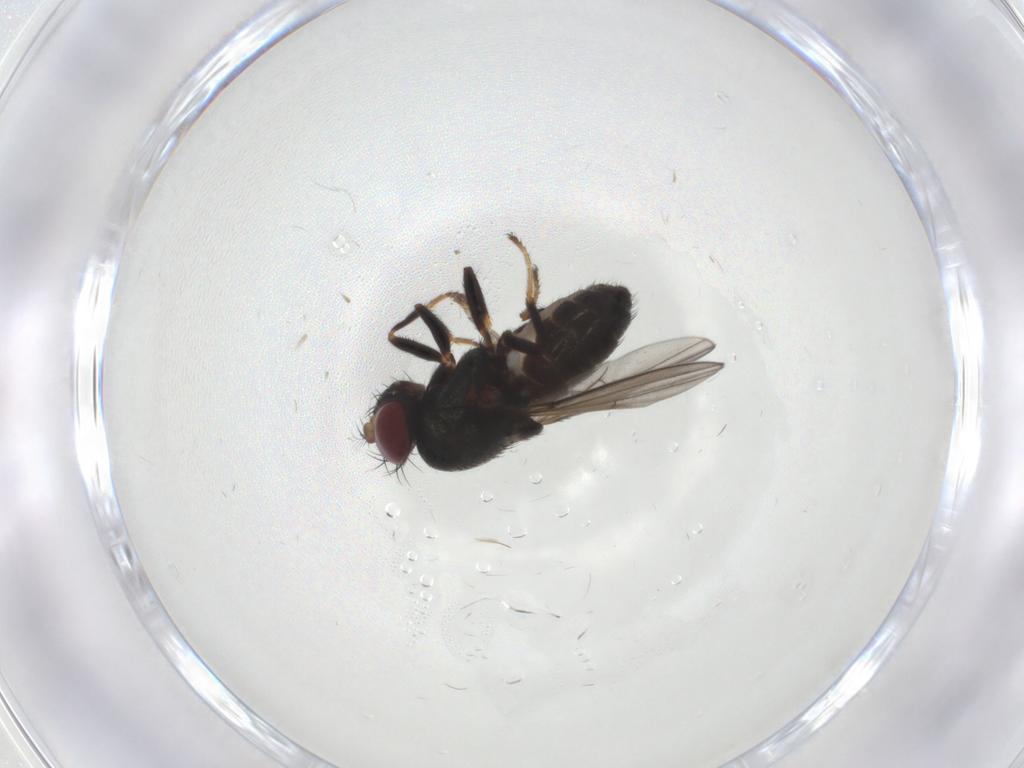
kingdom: Animalia
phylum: Arthropoda
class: Insecta
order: Diptera
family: Ephydridae
